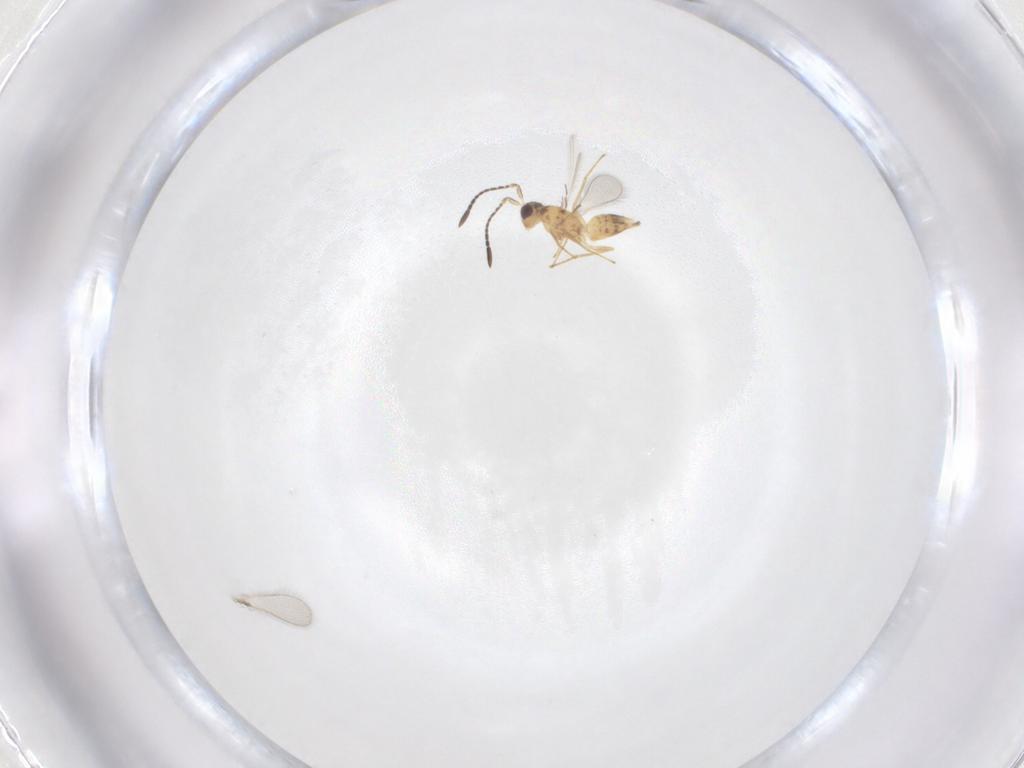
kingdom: Animalia
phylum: Arthropoda
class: Insecta
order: Hymenoptera
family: Mymaridae
